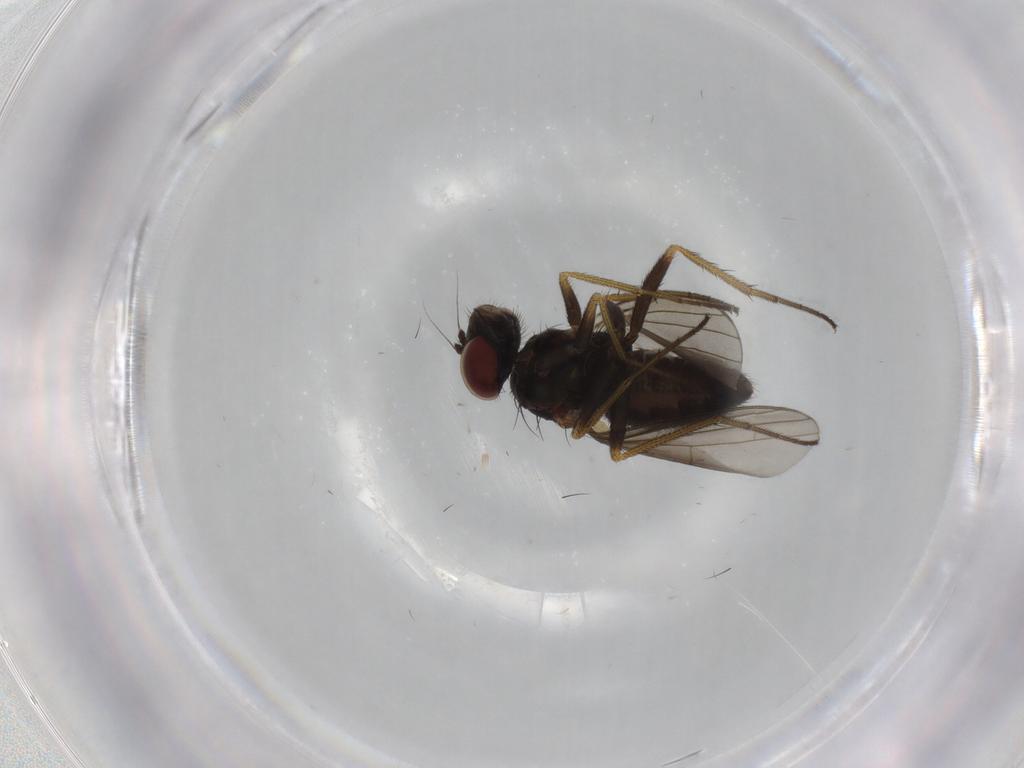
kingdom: Animalia
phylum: Arthropoda
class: Insecta
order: Diptera
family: Dolichopodidae
